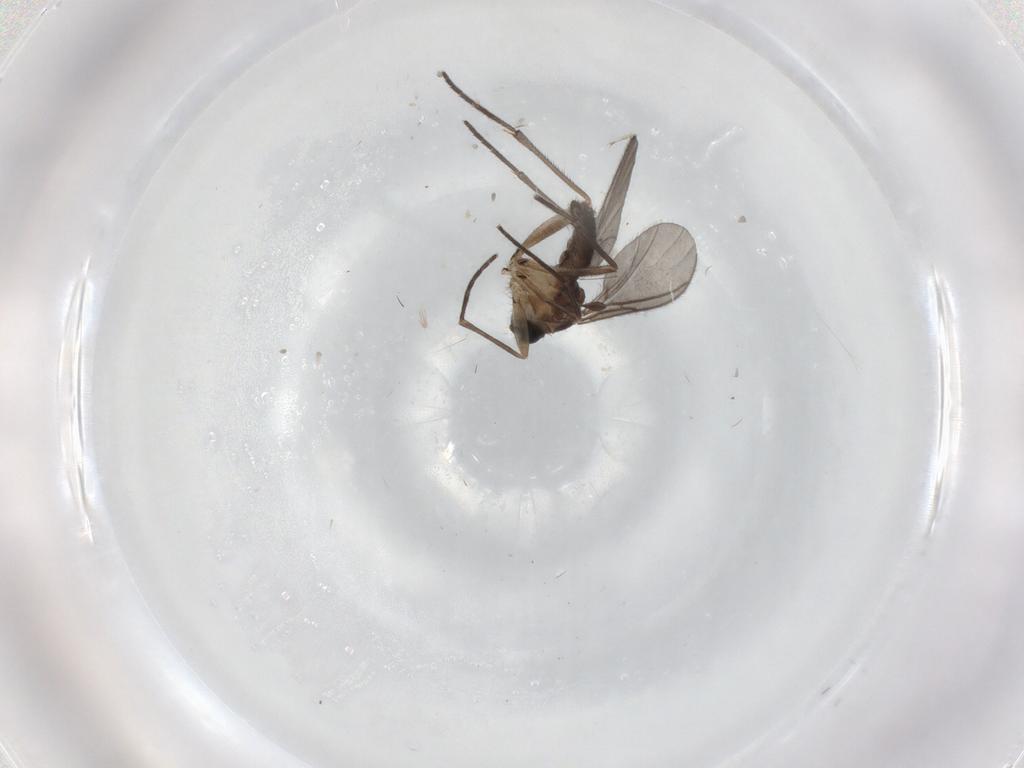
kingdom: Animalia
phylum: Arthropoda
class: Insecta
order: Diptera
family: Sciaridae
